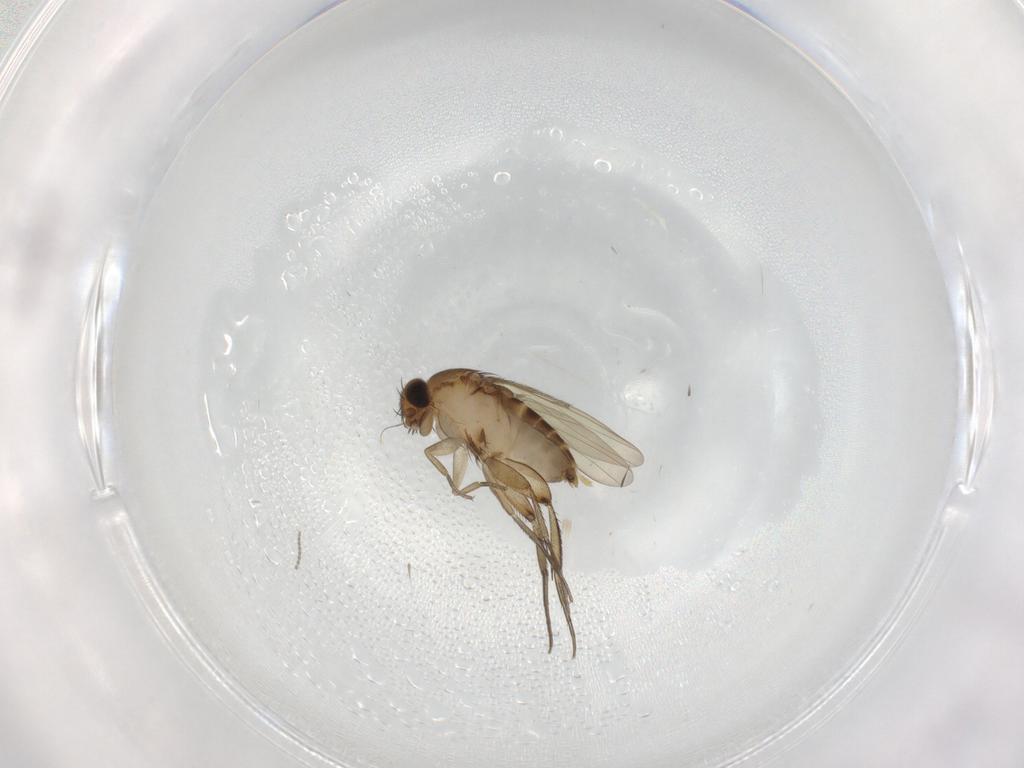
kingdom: Animalia
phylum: Arthropoda
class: Insecta
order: Diptera
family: Phoridae
